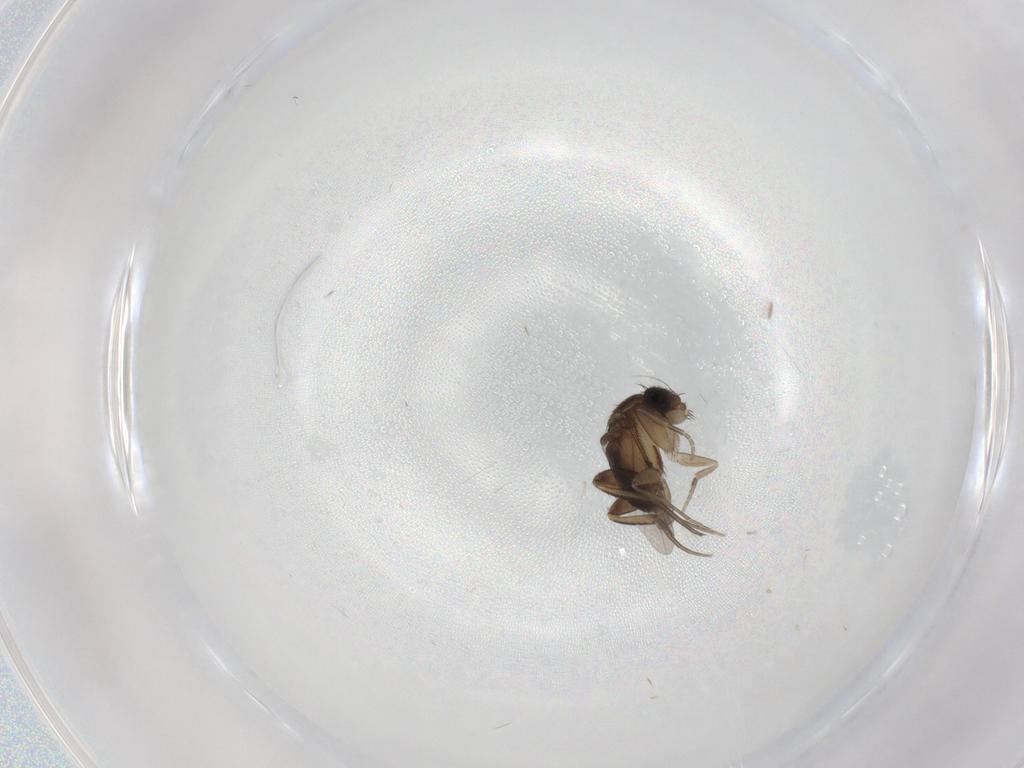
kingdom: Animalia
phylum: Arthropoda
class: Insecta
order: Diptera
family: Phoridae
